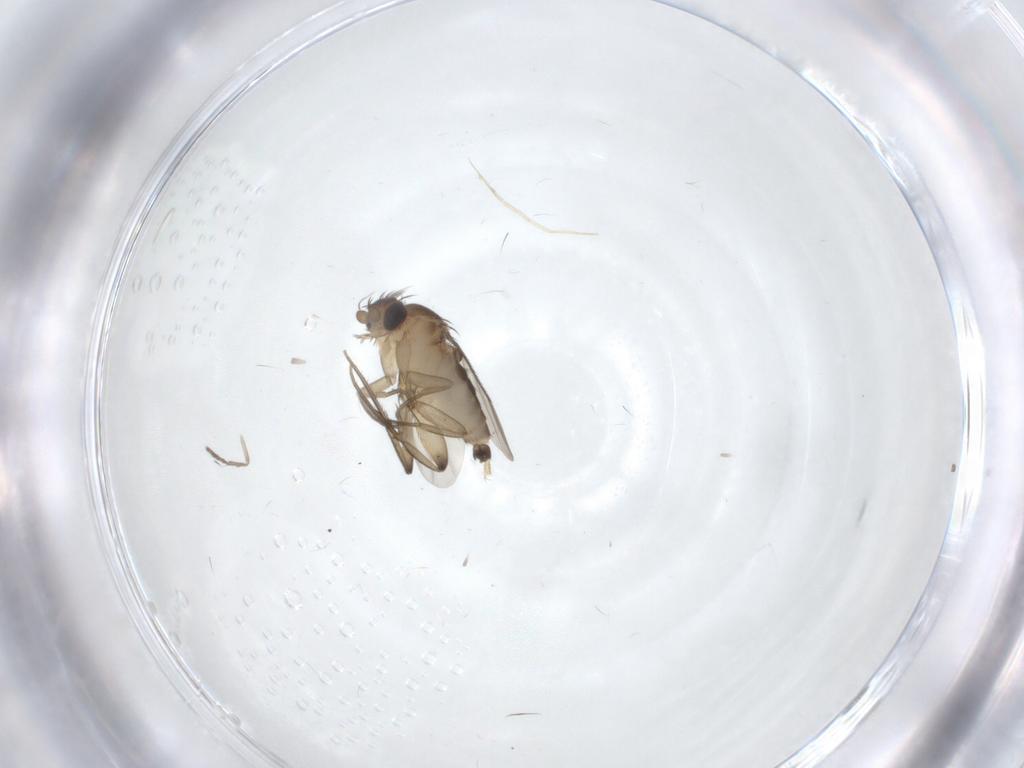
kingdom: Animalia
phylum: Arthropoda
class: Insecta
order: Diptera
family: Psychodidae
